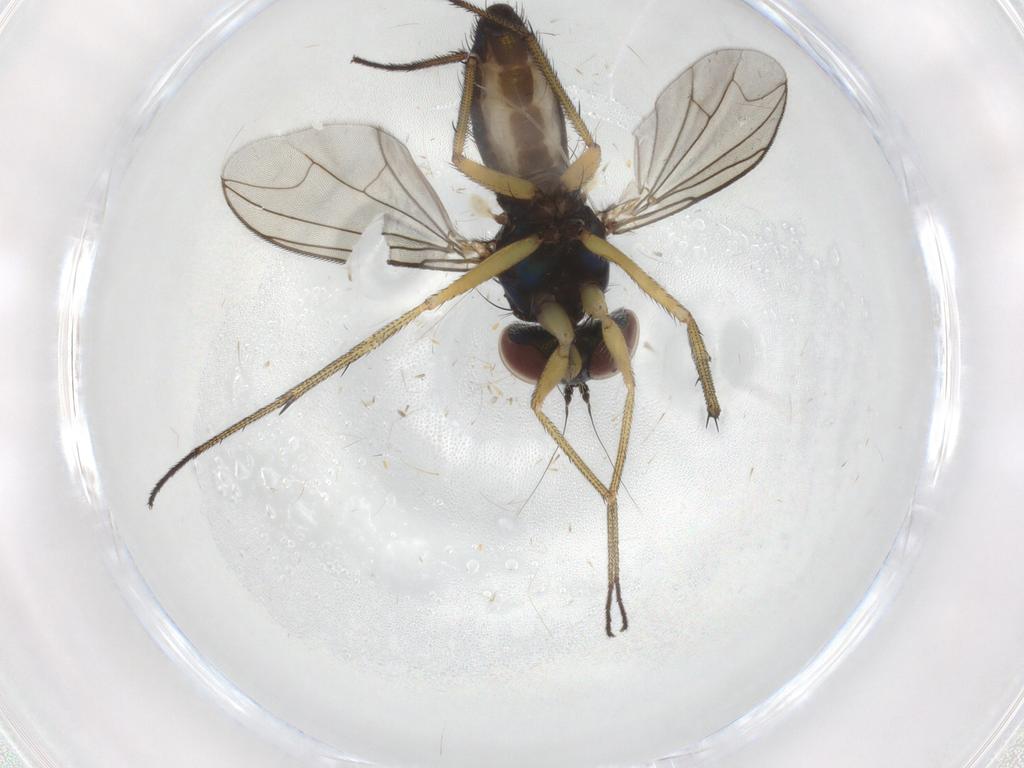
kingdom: Animalia
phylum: Arthropoda
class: Insecta
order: Diptera
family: Dolichopodidae
